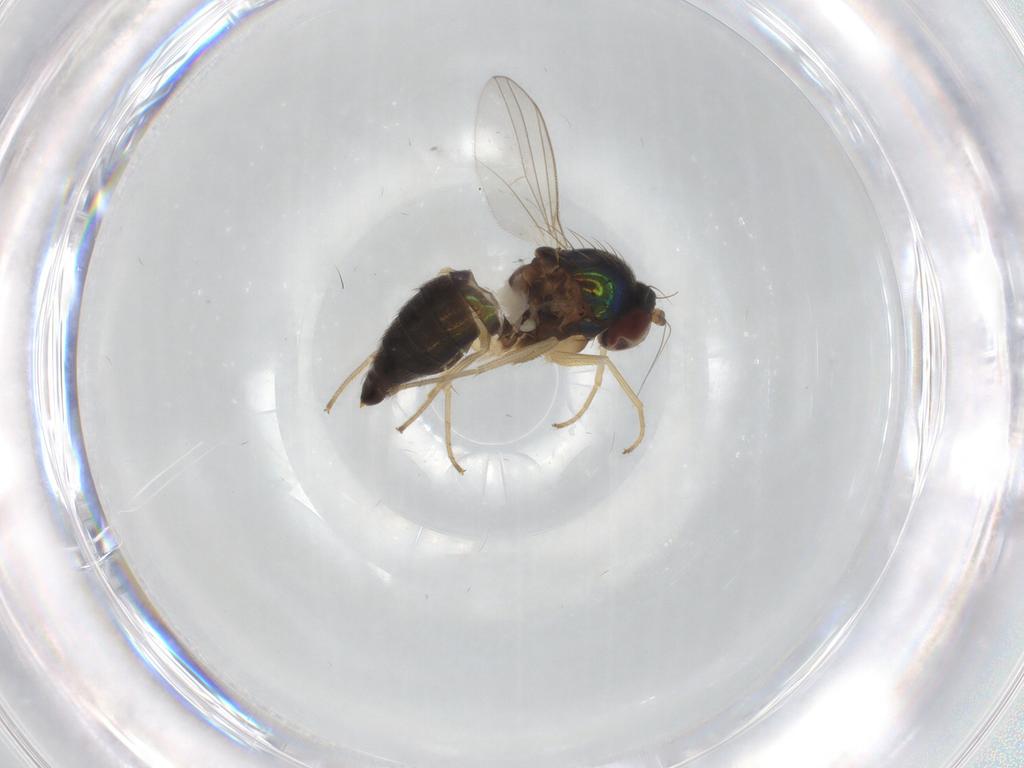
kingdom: Animalia
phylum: Arthropoda
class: Insecta
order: Diptera
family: Dolichopodidae
